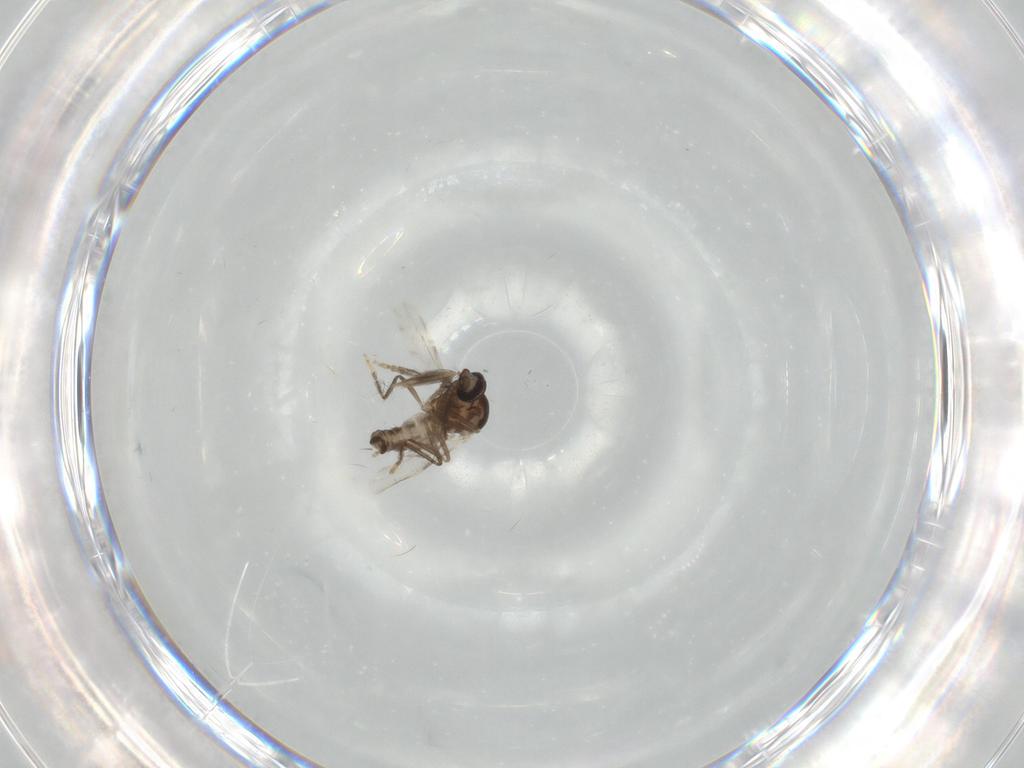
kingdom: Animalia
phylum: Arthropoda
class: Insecta
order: Diptera
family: Ceratopogonidae
